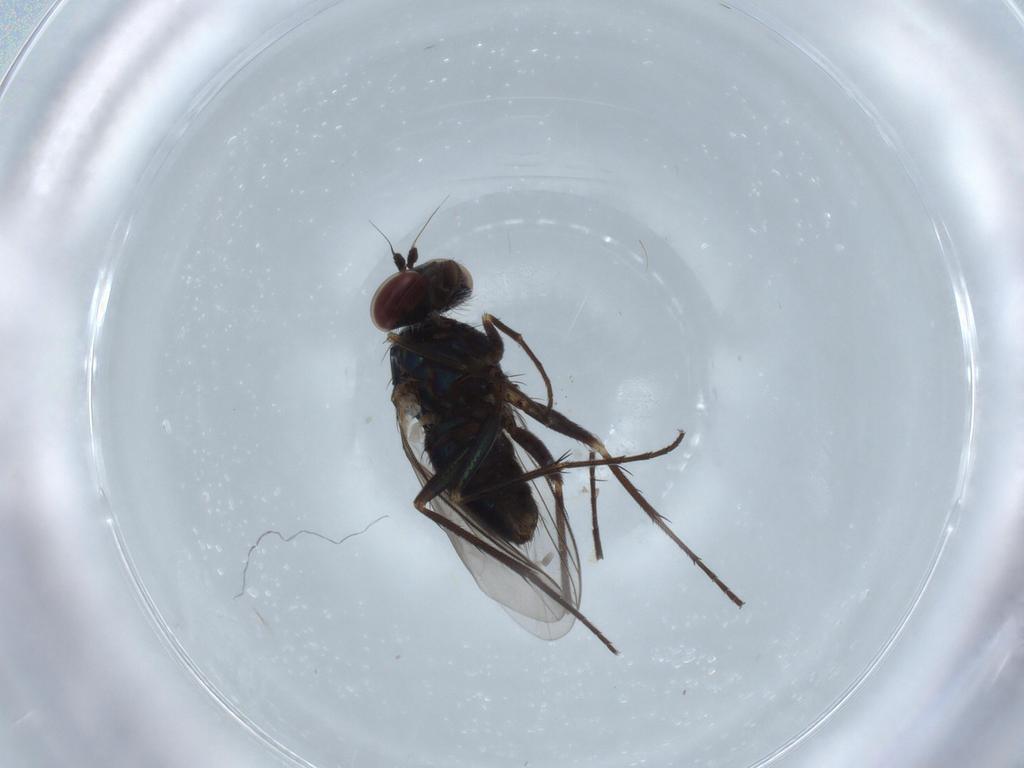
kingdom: Animalia
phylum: Arthropoda
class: Insecta
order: Diptera
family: Dolichopodidae
